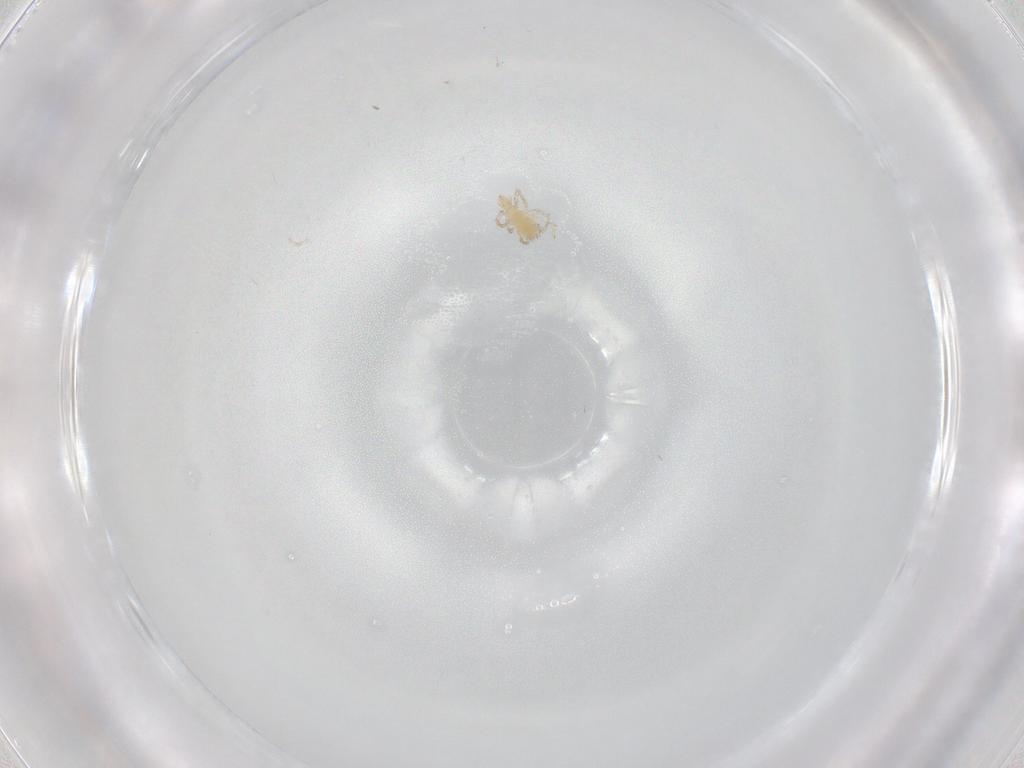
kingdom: Animalia
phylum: Arthropoda
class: Arachnida
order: Trombidiformes
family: Erythraeidae
